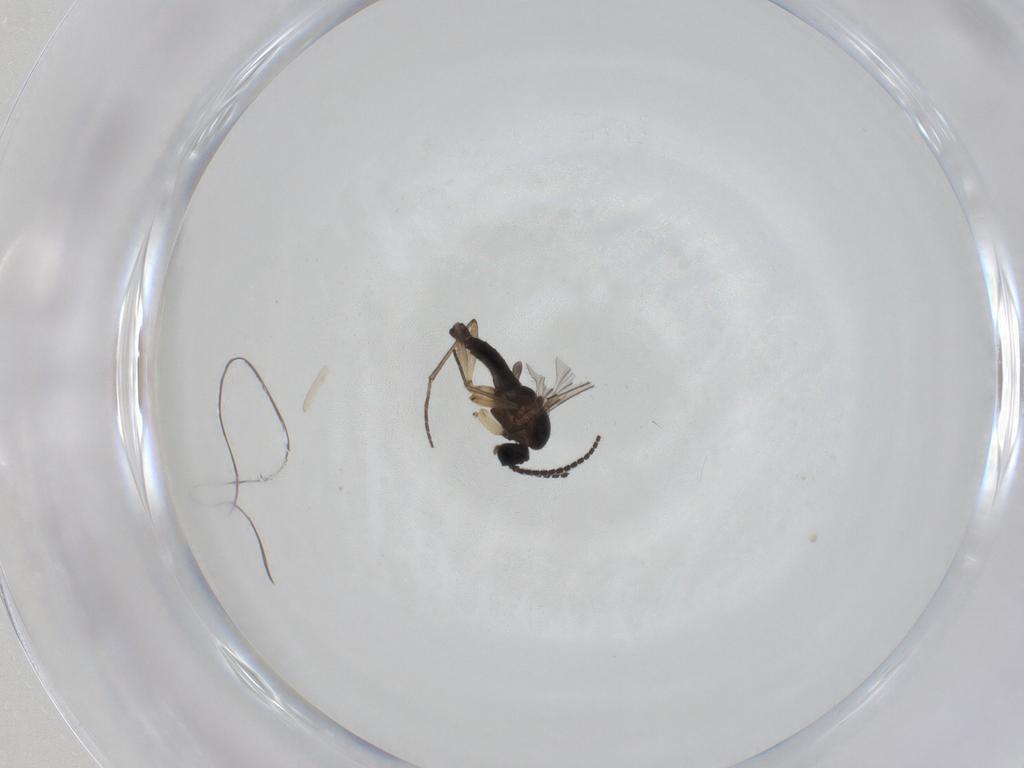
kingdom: Animalia
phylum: Arthropoda
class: Insecta
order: Diptera
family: Sciaridae
